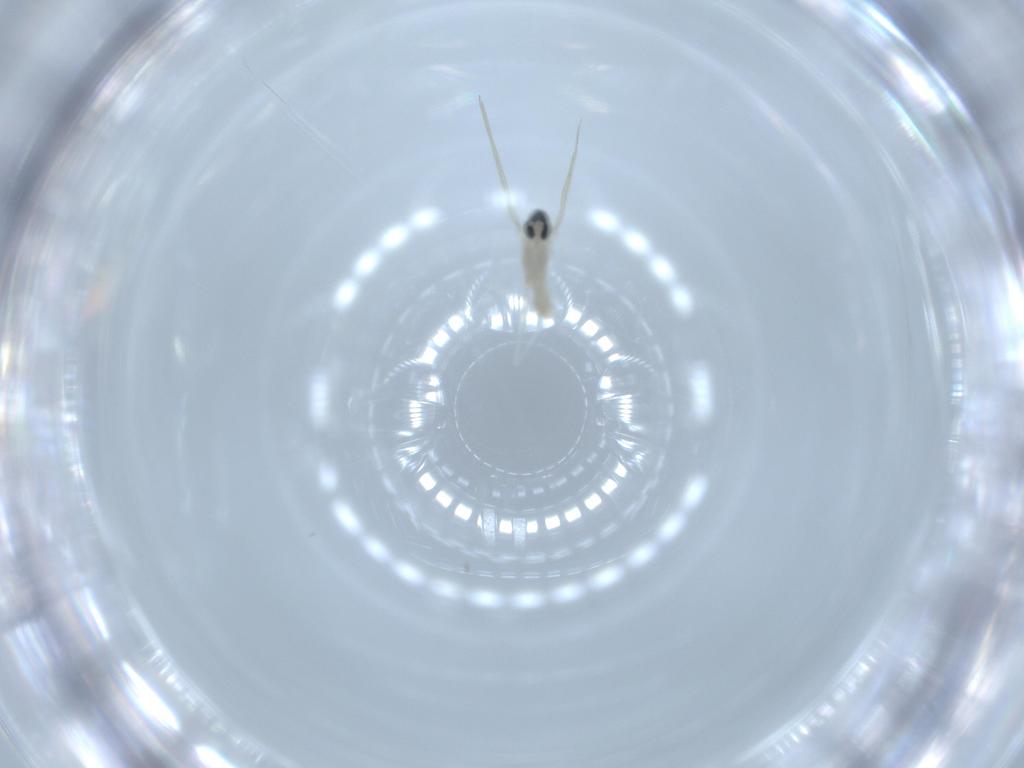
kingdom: Animalia
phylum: Arthropoda
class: Insecta
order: Diptera
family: Cecidomyiidae
